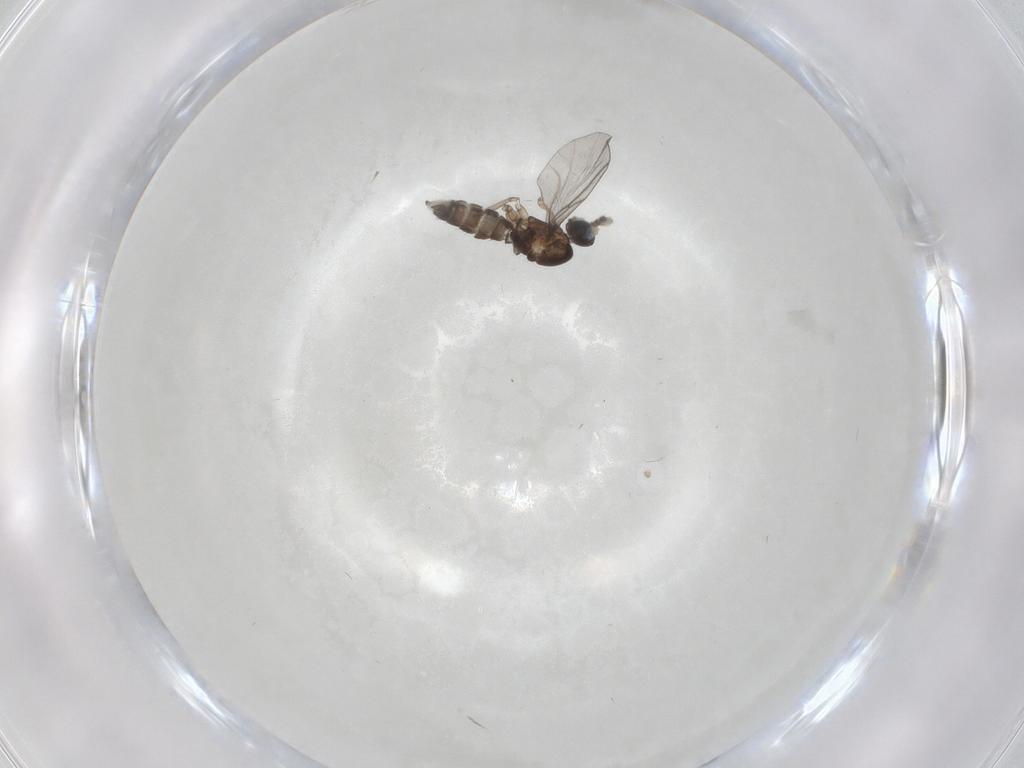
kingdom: Animalia
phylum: Arthropoda
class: Insecta
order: Diptera
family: Phoridae
